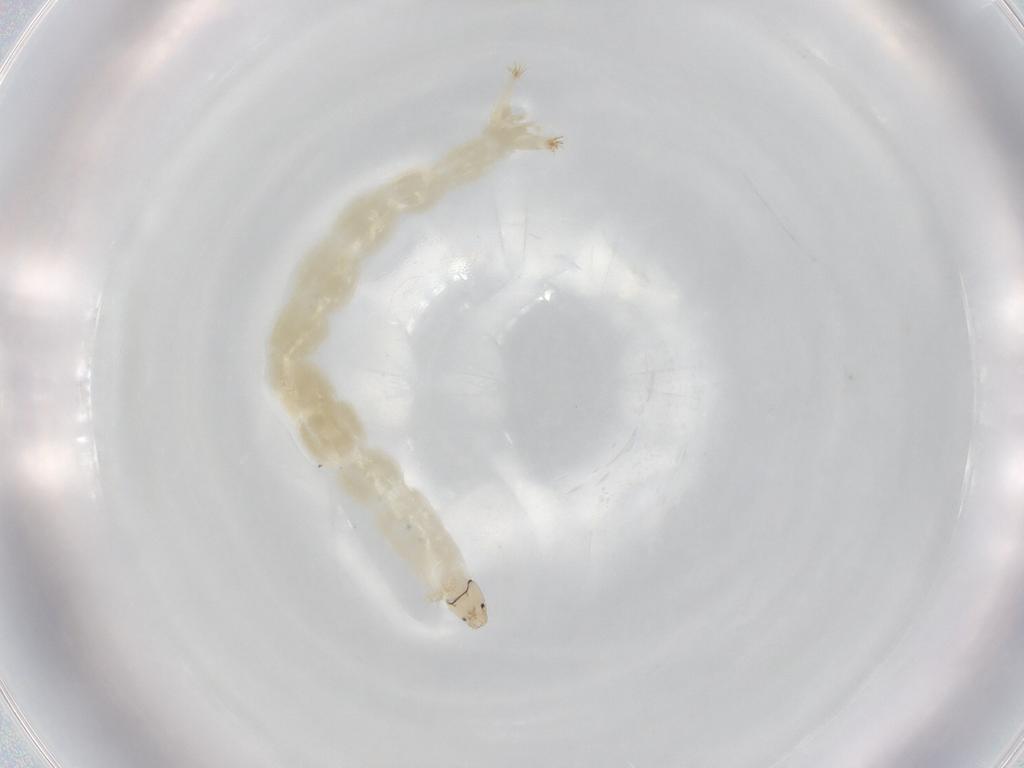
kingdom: Animalia
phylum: Arthropoda
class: Insecta
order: Diptera
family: Chironomidae
